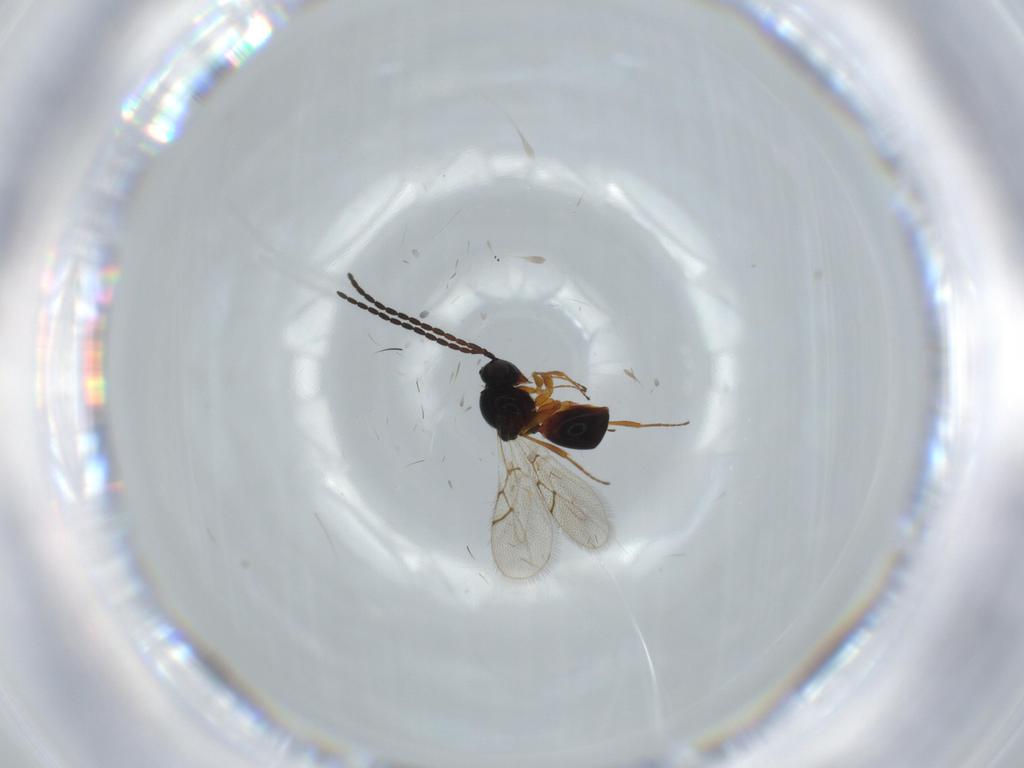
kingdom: Animalia
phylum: Arthropoda
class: Insecta
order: Hymenoptera
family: Figitidae
